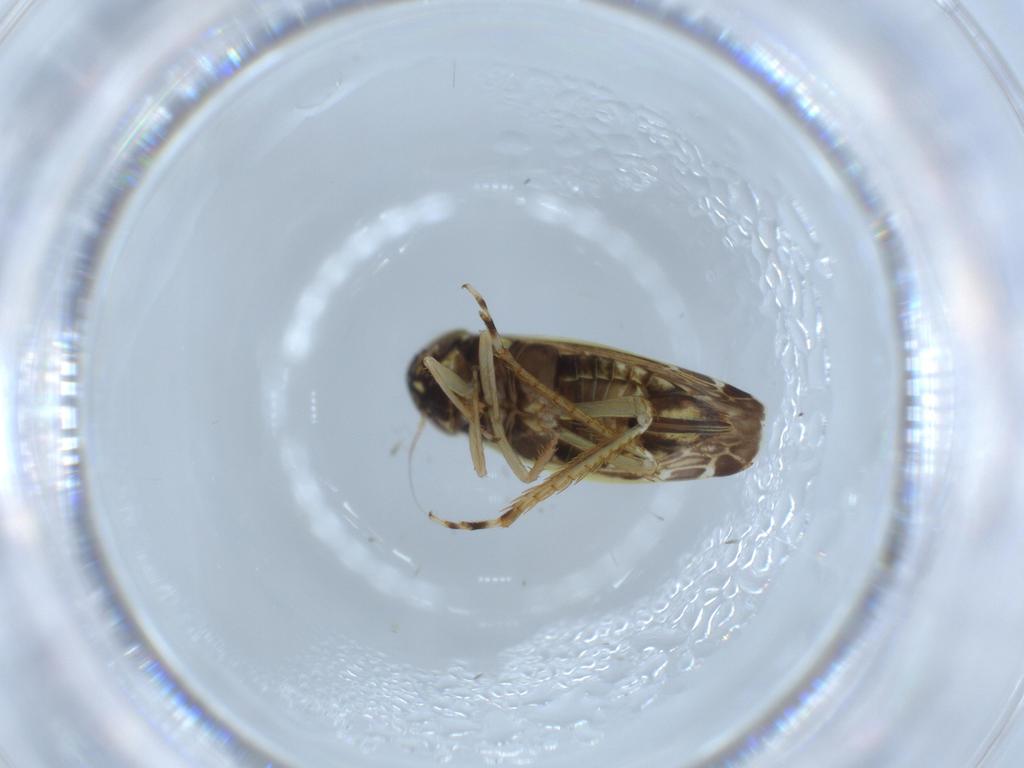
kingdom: Animalia
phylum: Arthropoda
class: Insecta
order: Hemiptera
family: Cicadellidae
